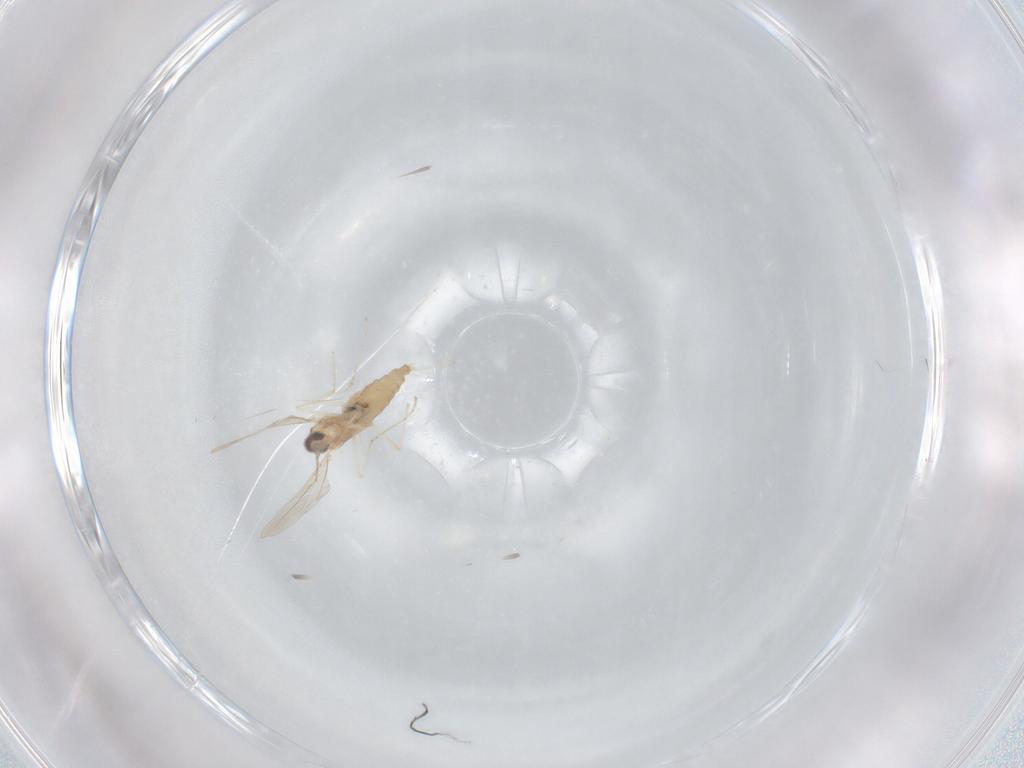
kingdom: Animalia
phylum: Arthropoda
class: Insecta
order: Diptera
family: Cecidomyiidae
